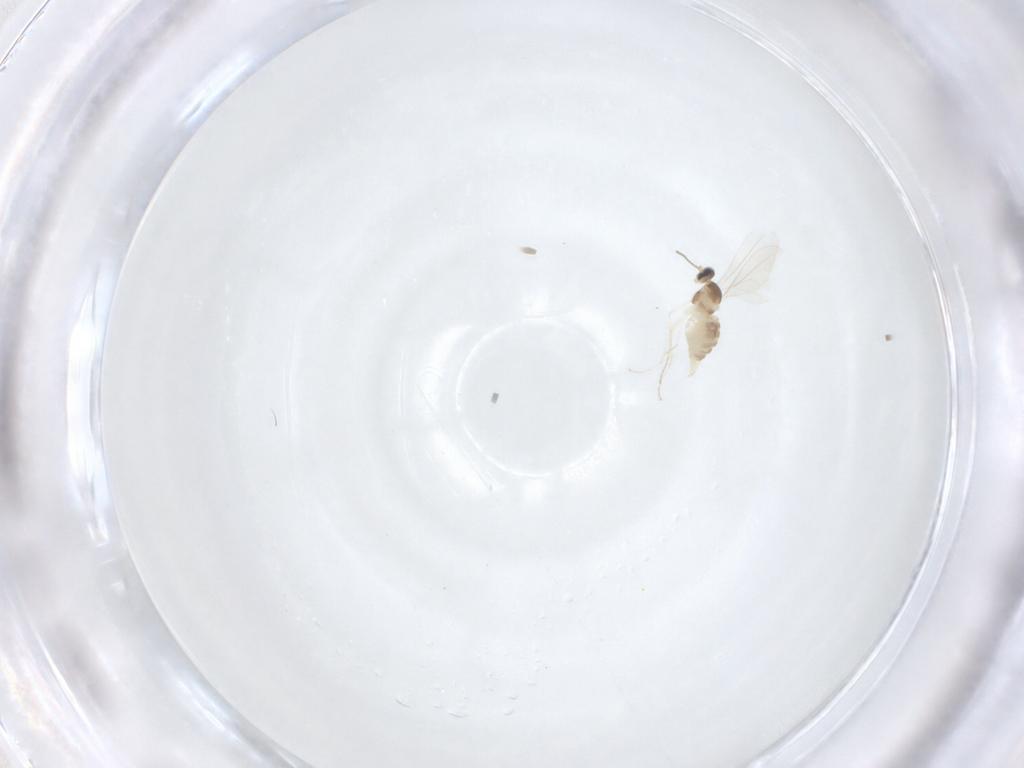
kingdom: Animalia
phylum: Arthropoda
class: Insecta
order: Diptera
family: Cecidomyiidae
